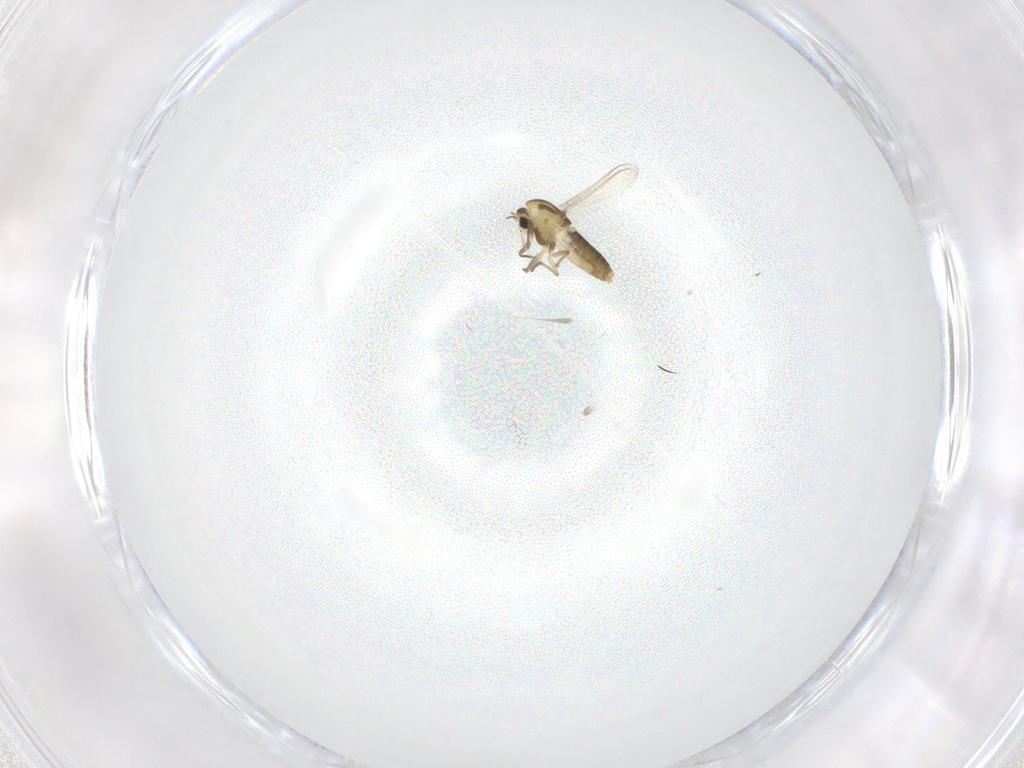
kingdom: Animalia
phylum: Arthropoda
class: Insecta
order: Diptera
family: Chironomidae
